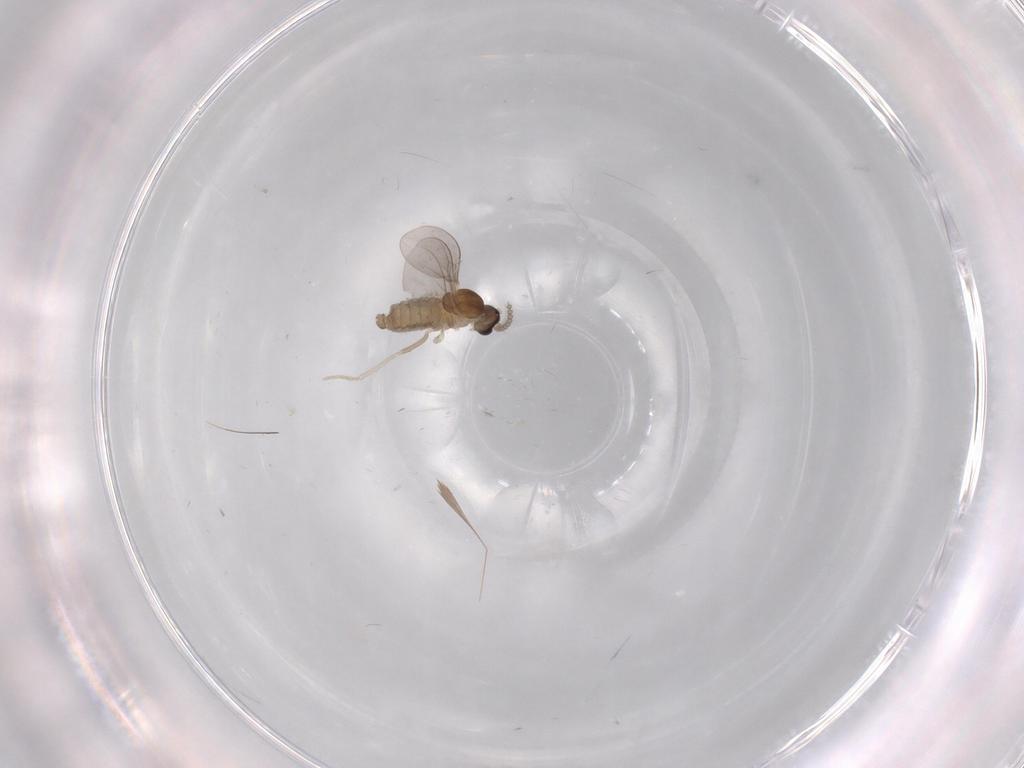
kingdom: Animalia
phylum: Arthropoda
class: Insecta
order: Diptera
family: Cecidomyiidae
